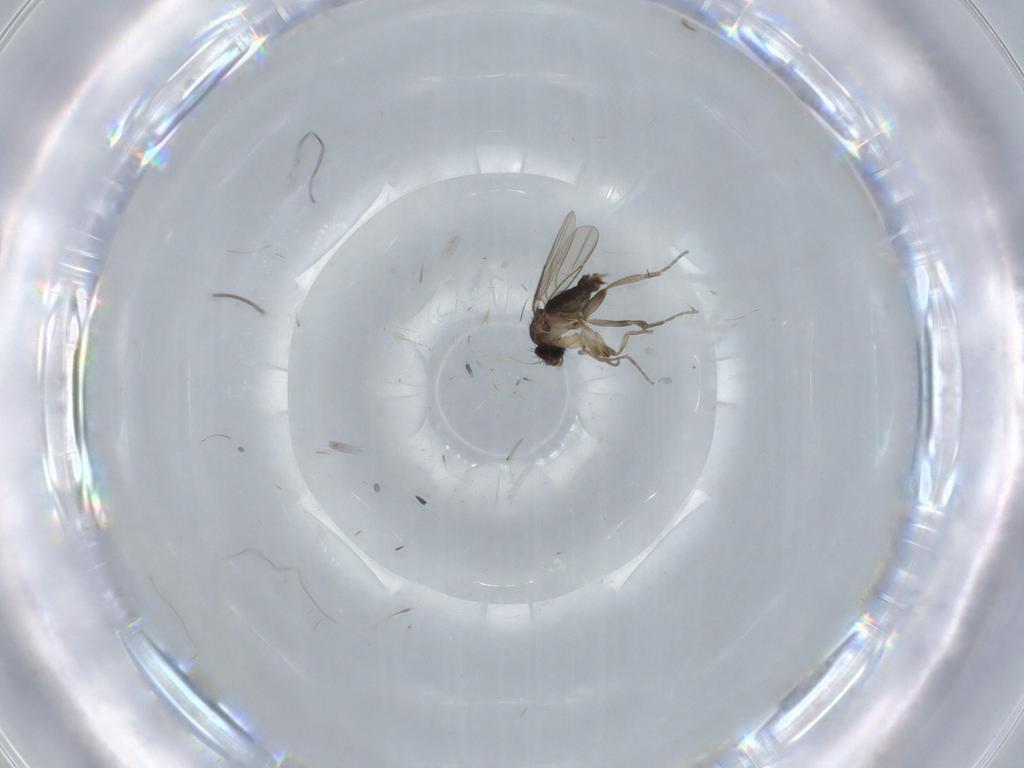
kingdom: Animalia
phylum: Arthropoda
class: Insecta
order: Diptera
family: Phoridae
